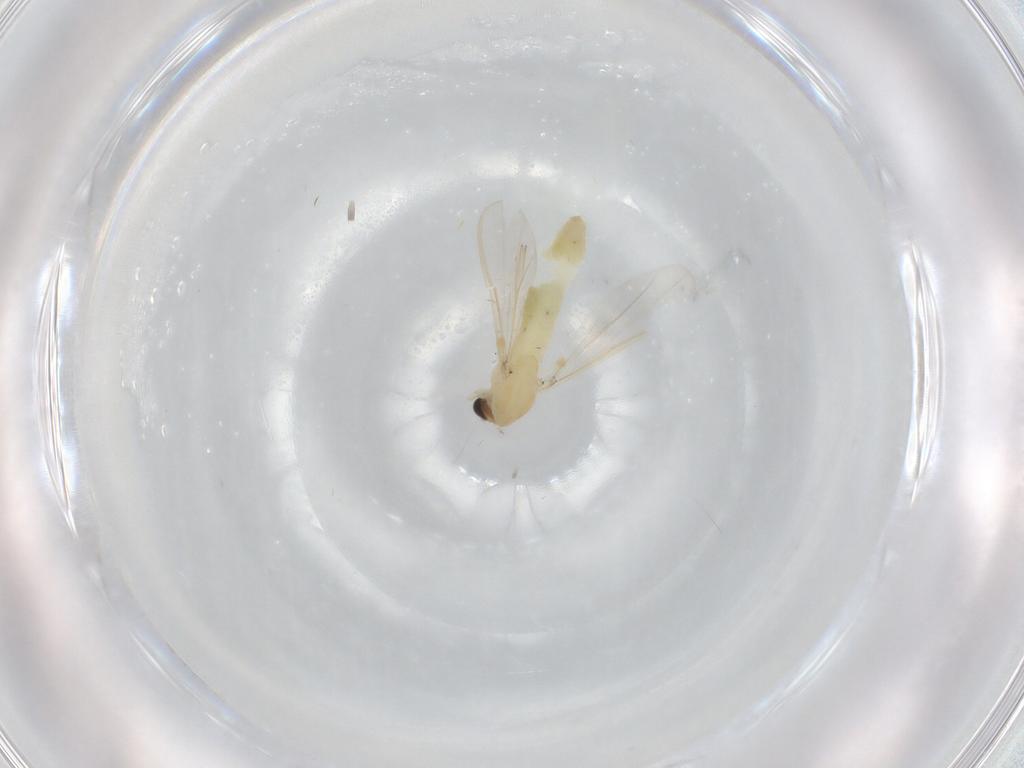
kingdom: Animalia
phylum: Arthropoda
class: Insecta
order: Diptera
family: Chironomidae
